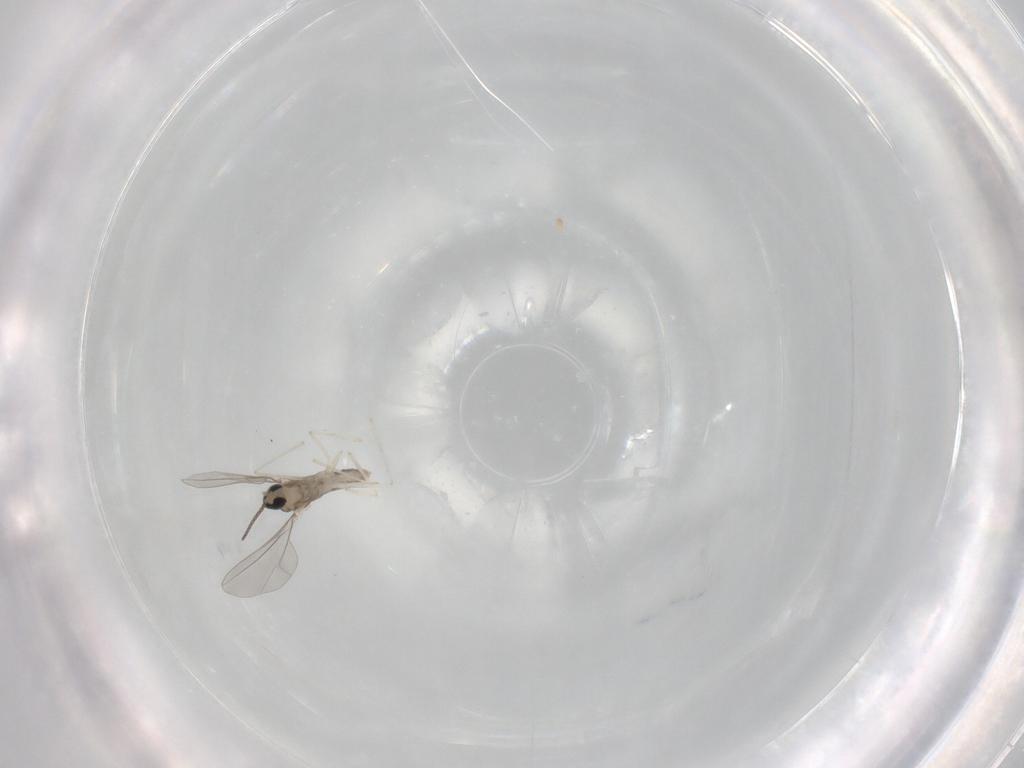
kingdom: Animalia
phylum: Arthropoda
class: Insecta
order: Diptera
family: Cecidomyiidae
